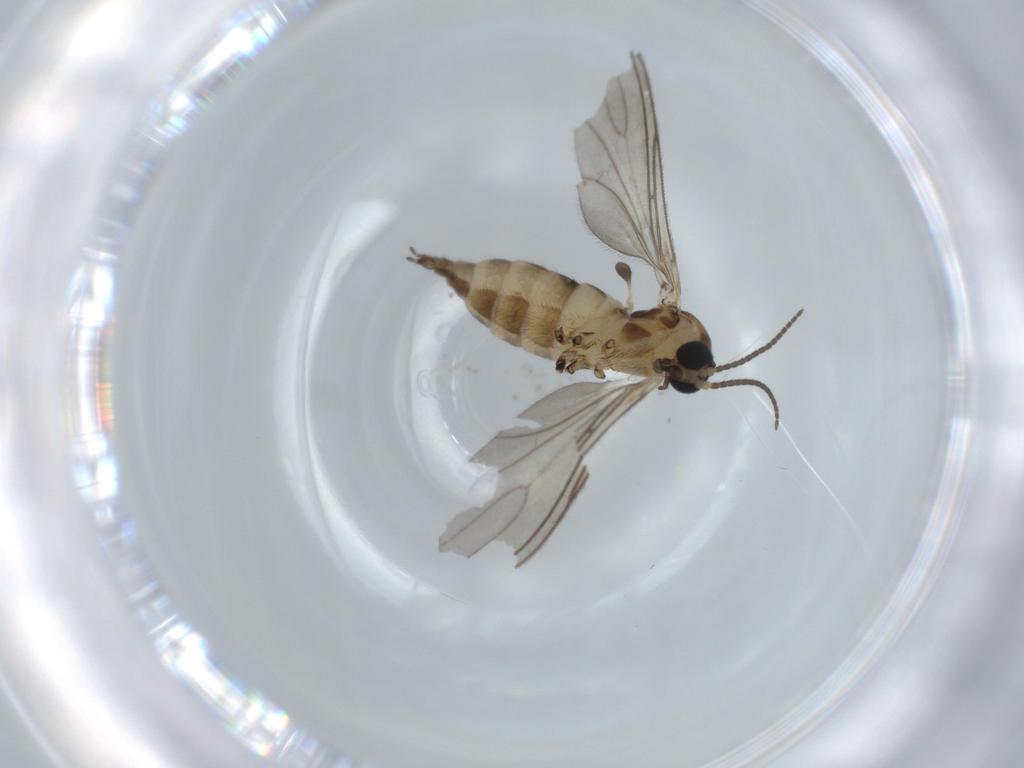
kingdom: Animalia
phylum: Arthropoda
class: Insecta
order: Diptera
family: Sciaridae
